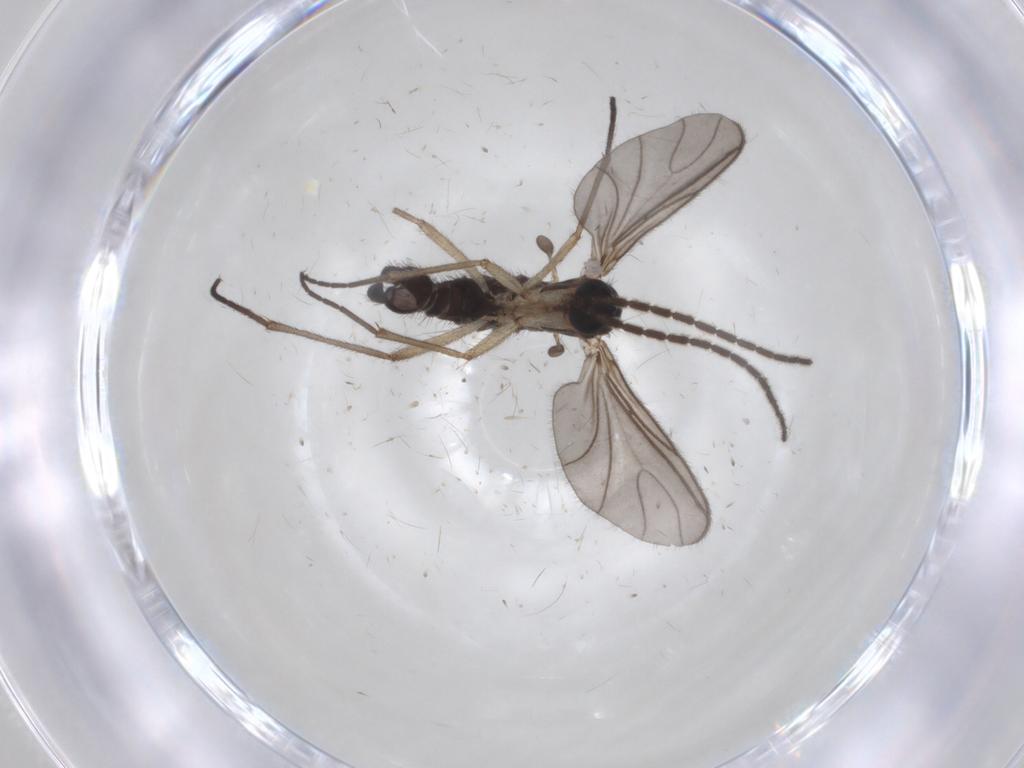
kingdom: Animalia
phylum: Arthropoda
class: Insecta
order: Diptera
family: Sciaridae
